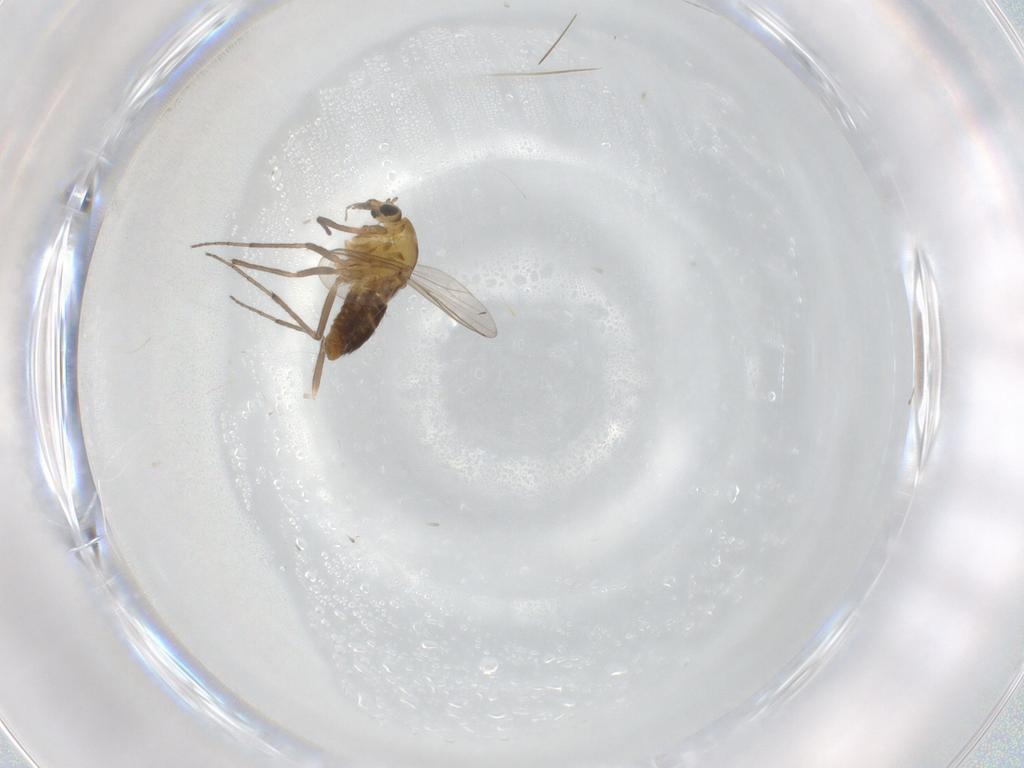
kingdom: Animalia
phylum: Arthropoda
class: Insecta
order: Diptera
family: Chironomidae
